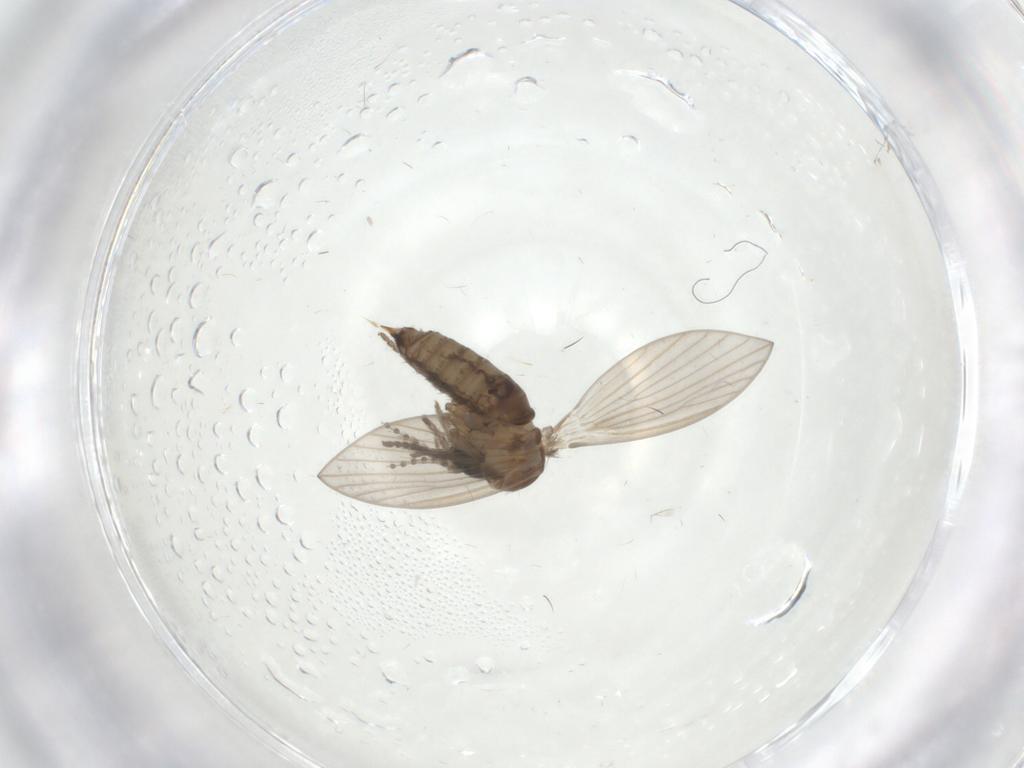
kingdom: Animalia
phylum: Arthropoda
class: Insecta
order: Diptera
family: Psychodidae
